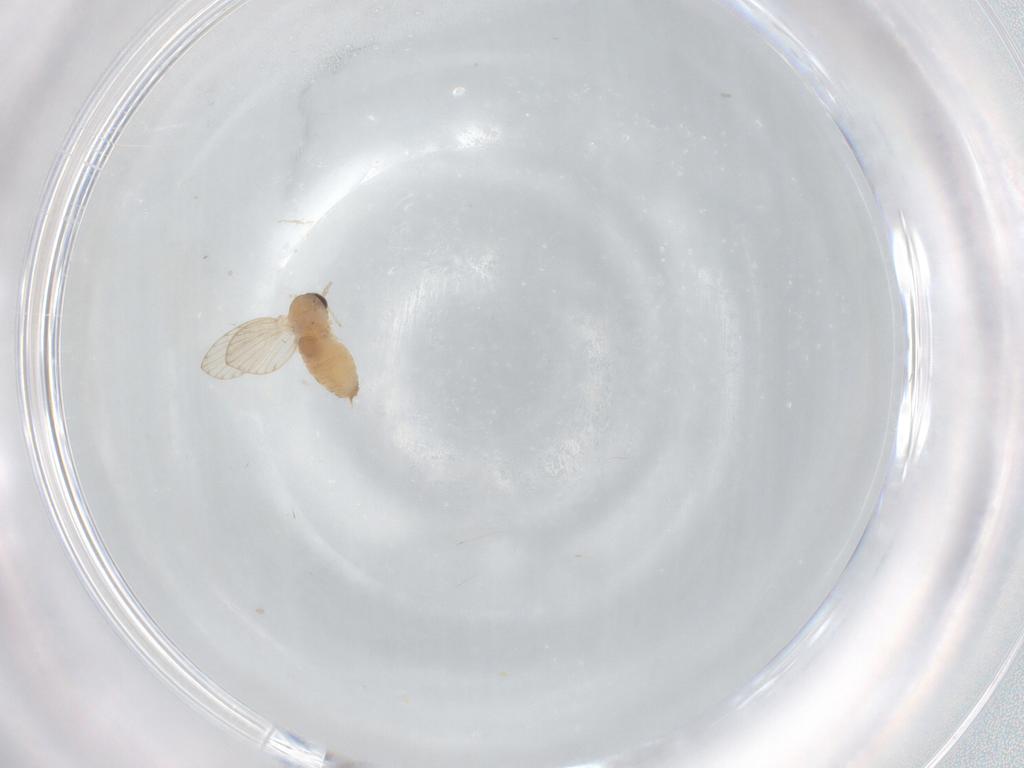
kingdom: Animalia
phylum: Arthropoda
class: Insecta
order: Diptera
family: Psychodidae
